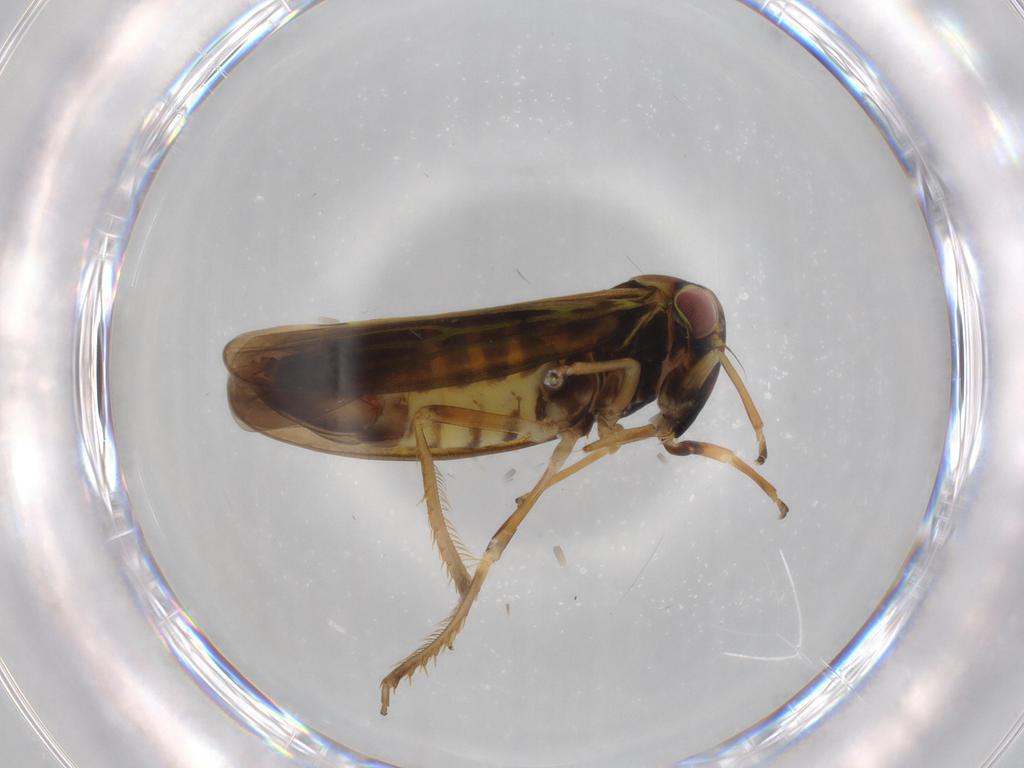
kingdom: Animalia
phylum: Arthropoda
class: Insecta
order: Hemiptera
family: Cicadellidae
